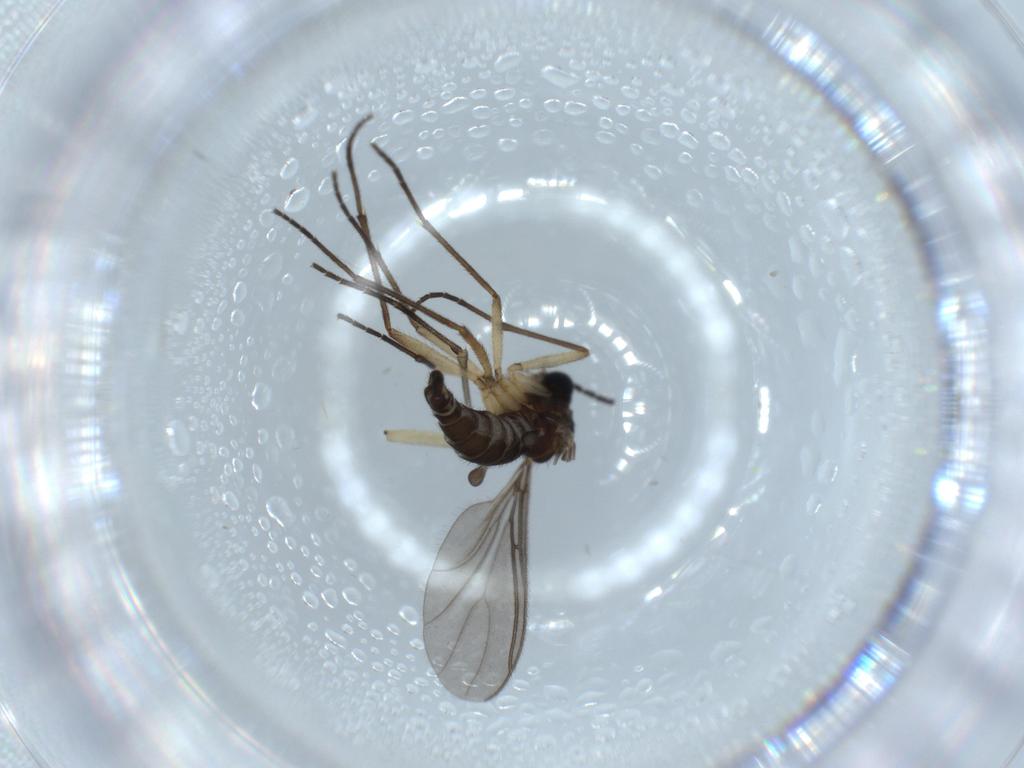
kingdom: Animalia
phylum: Arthropoda
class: Insecta
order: Diptera
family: Sciaridae
